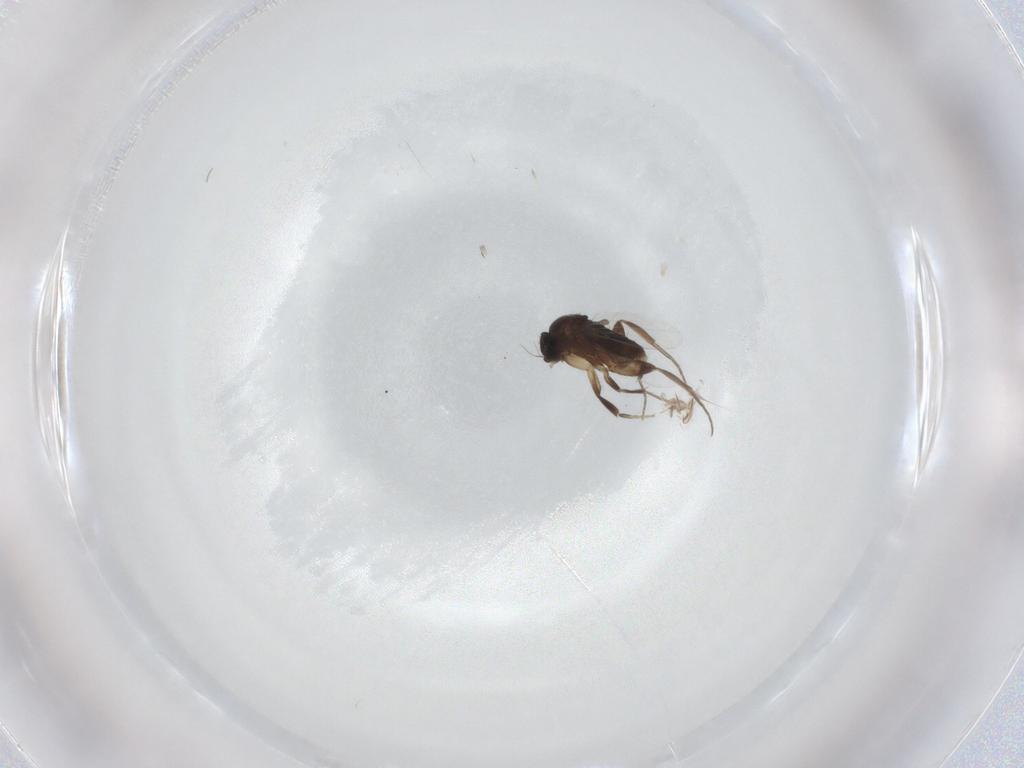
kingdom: Animalia
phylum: Arthropoda
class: Insecta
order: Diptera
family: Phoridae
